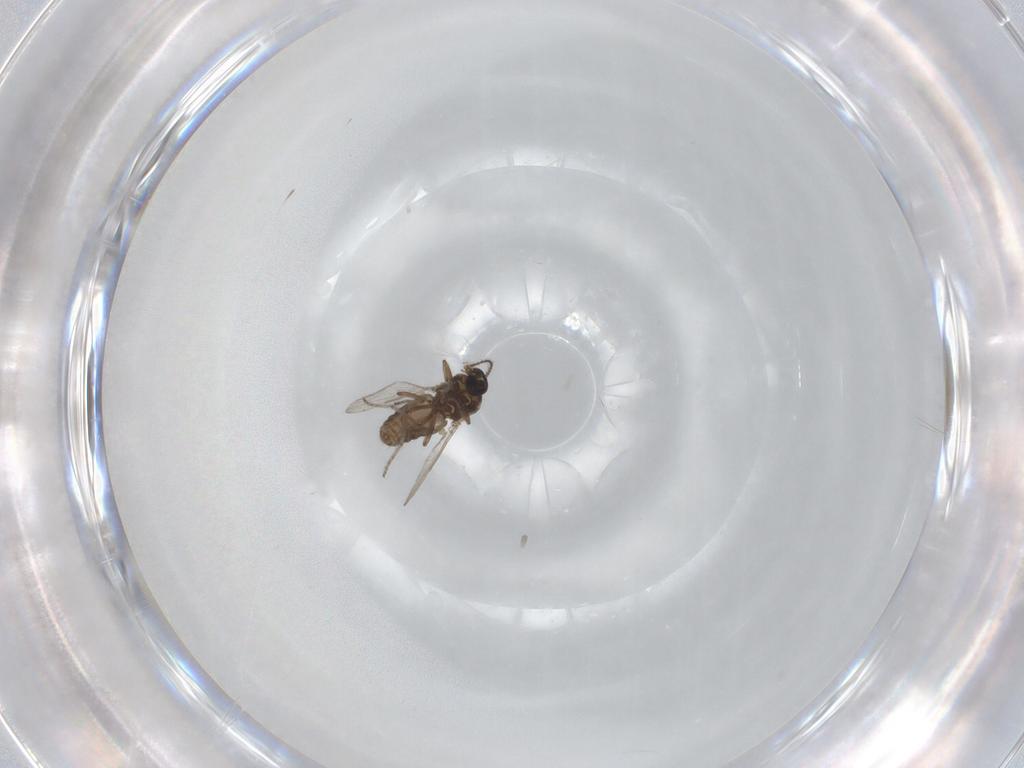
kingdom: Animalia
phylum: Arthropoda
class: Insecta
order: Diptera
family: Ceratopogonidae
